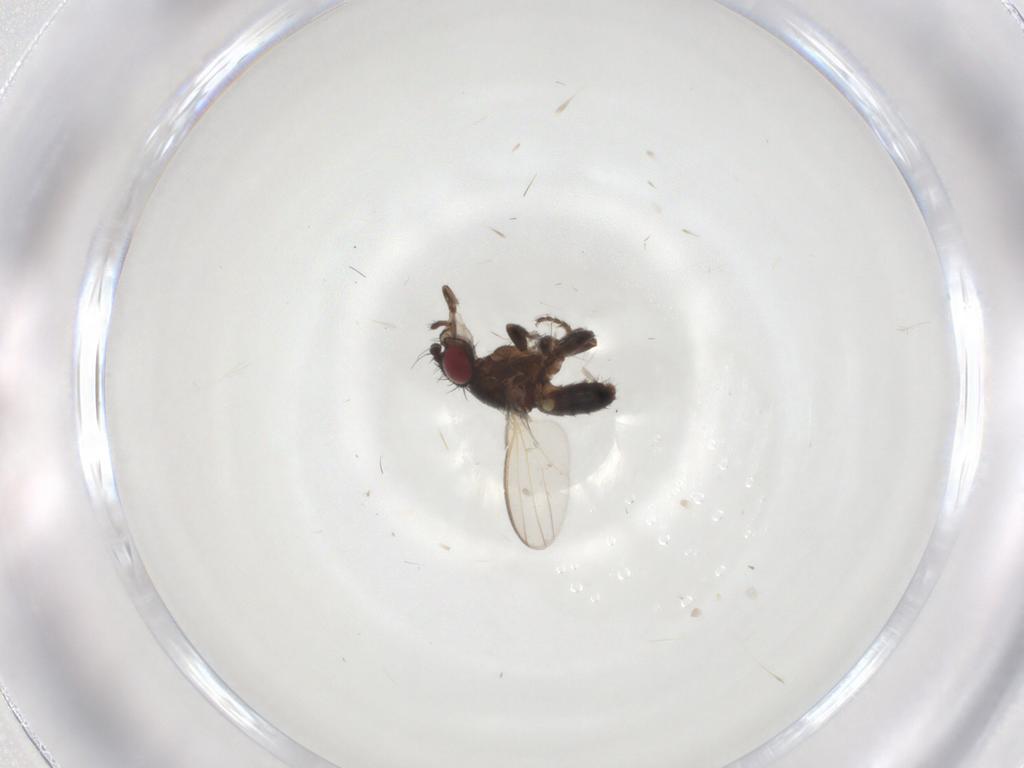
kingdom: Animalia
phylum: Arthropoda
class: Insecta
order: Diptera
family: Milichiidae
